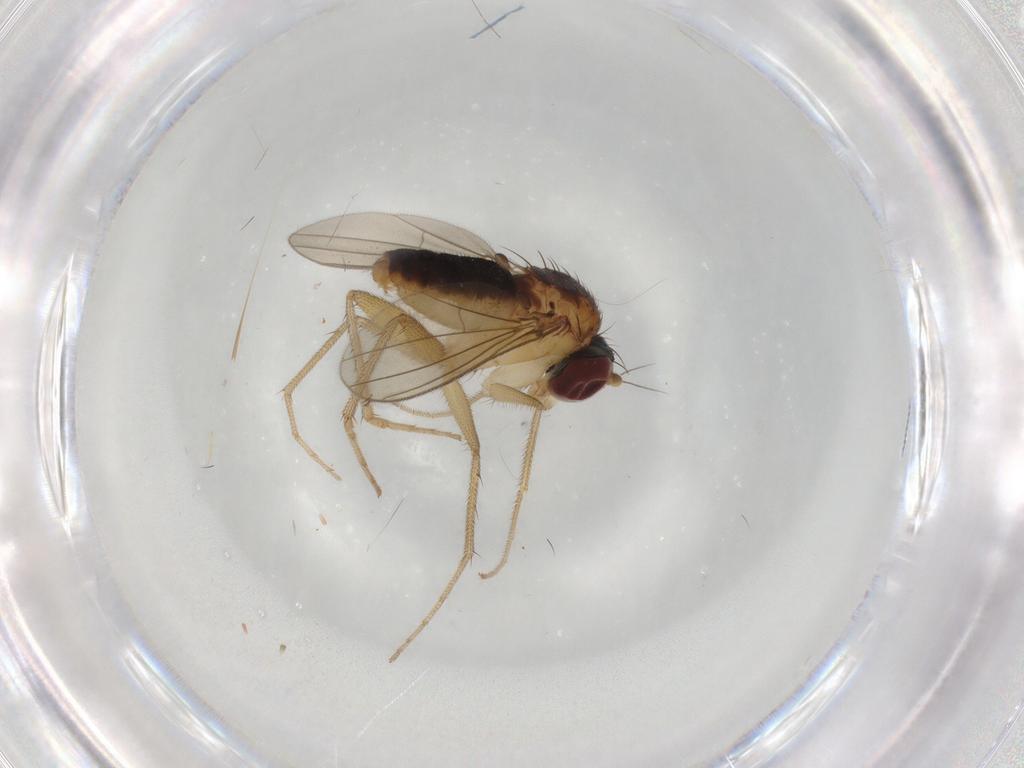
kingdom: Animalia
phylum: Arthropoda
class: Insecta
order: Diptera
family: Dolichopodidae
